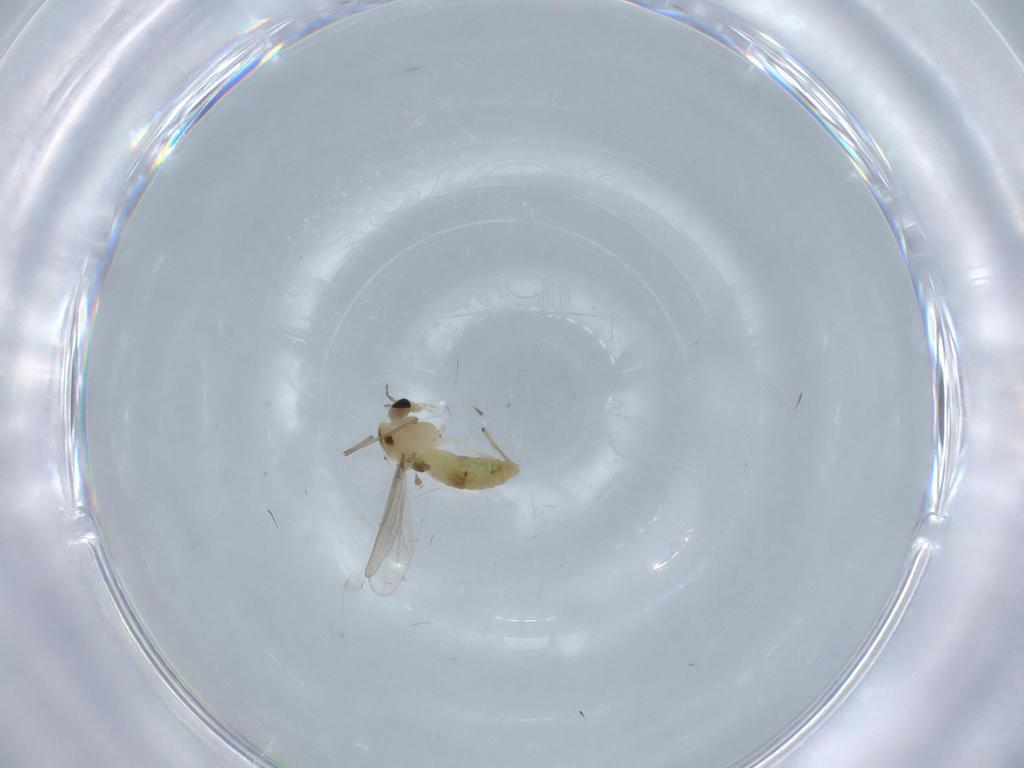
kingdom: Animalia
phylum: Arthropoda
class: Insecta
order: Diptera
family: Chironomidae
